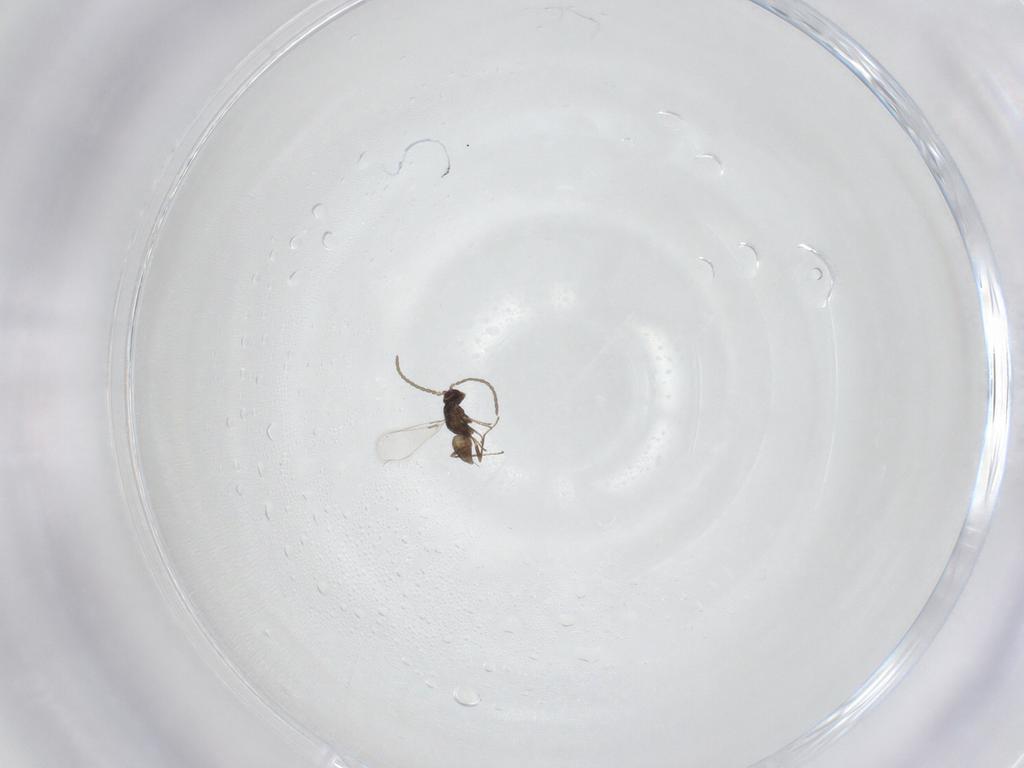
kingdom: Animalia
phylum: Arthropoda
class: Insecta
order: Hymenoptera
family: Mymaridae
